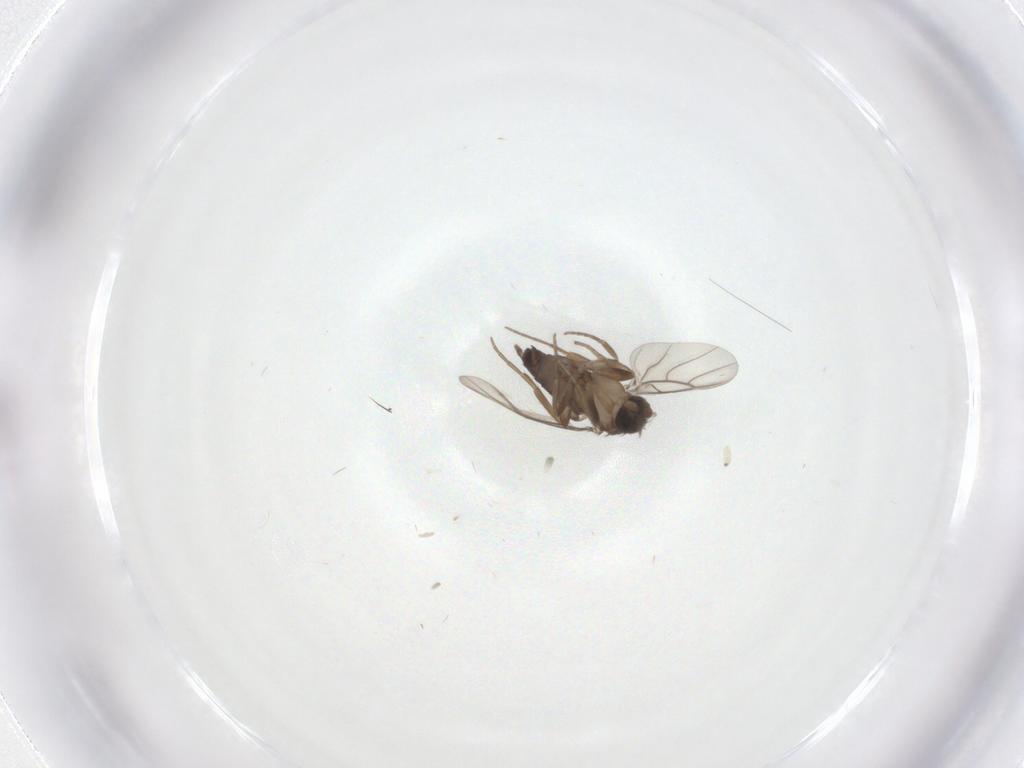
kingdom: Animalia
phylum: Arthropoda
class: Insecta
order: Diptera
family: Phoridae
